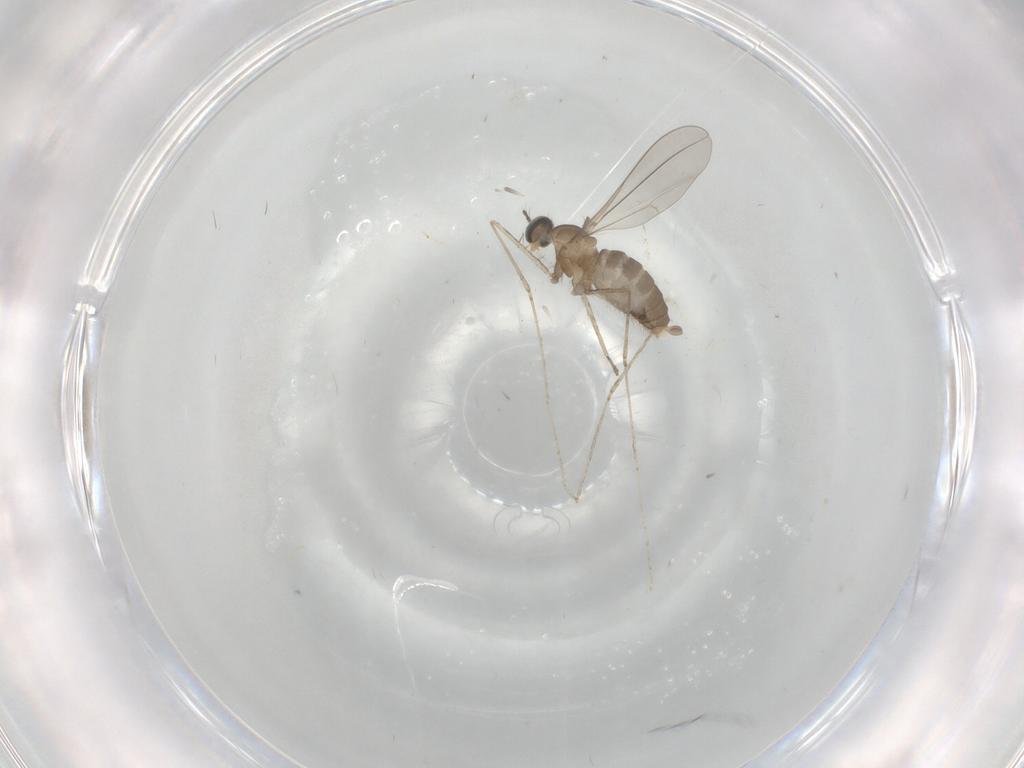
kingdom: Animalia
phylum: Arthropoda
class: Insecta
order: Diptera
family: Cecidomyiidae
